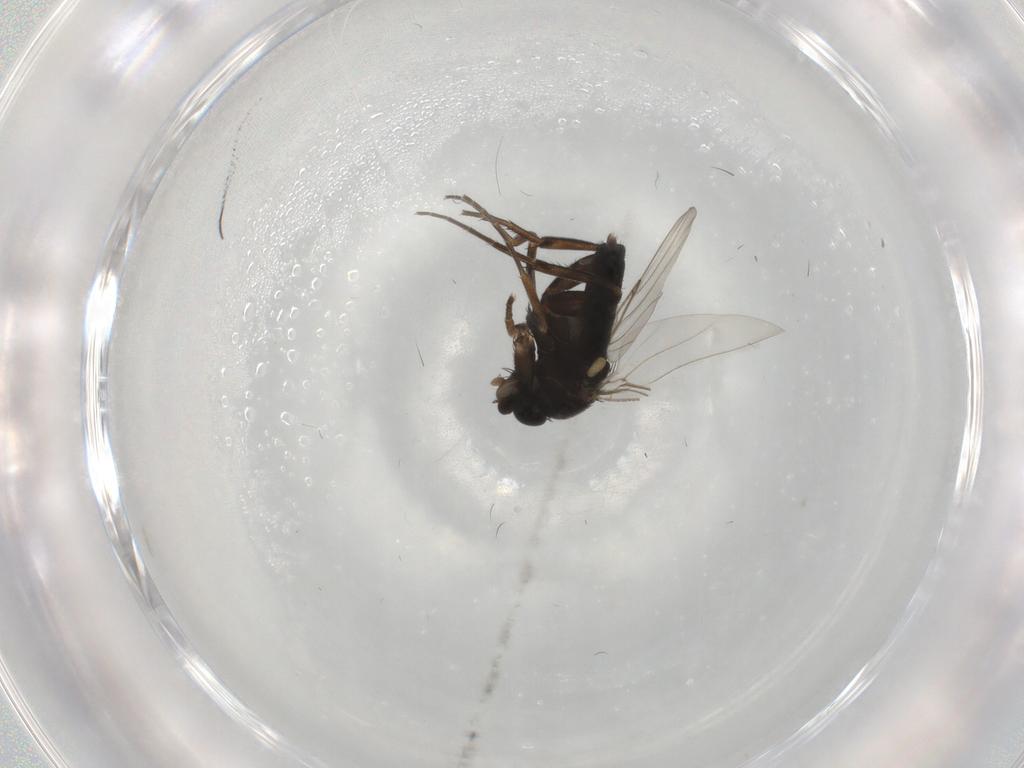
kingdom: Animalia
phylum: Arthropoda
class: Insecta
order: Diptera
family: Phoridae
